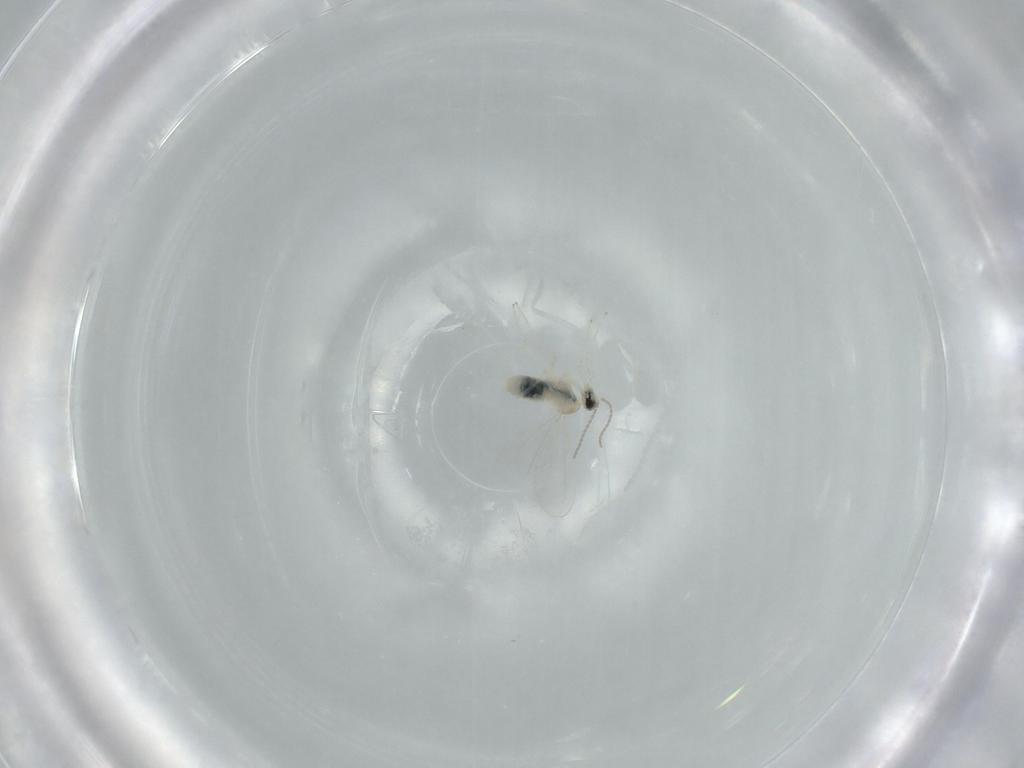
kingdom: Animalia
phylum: Arthropoda
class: Insecta
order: Diptera
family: Cecidomyiidae
